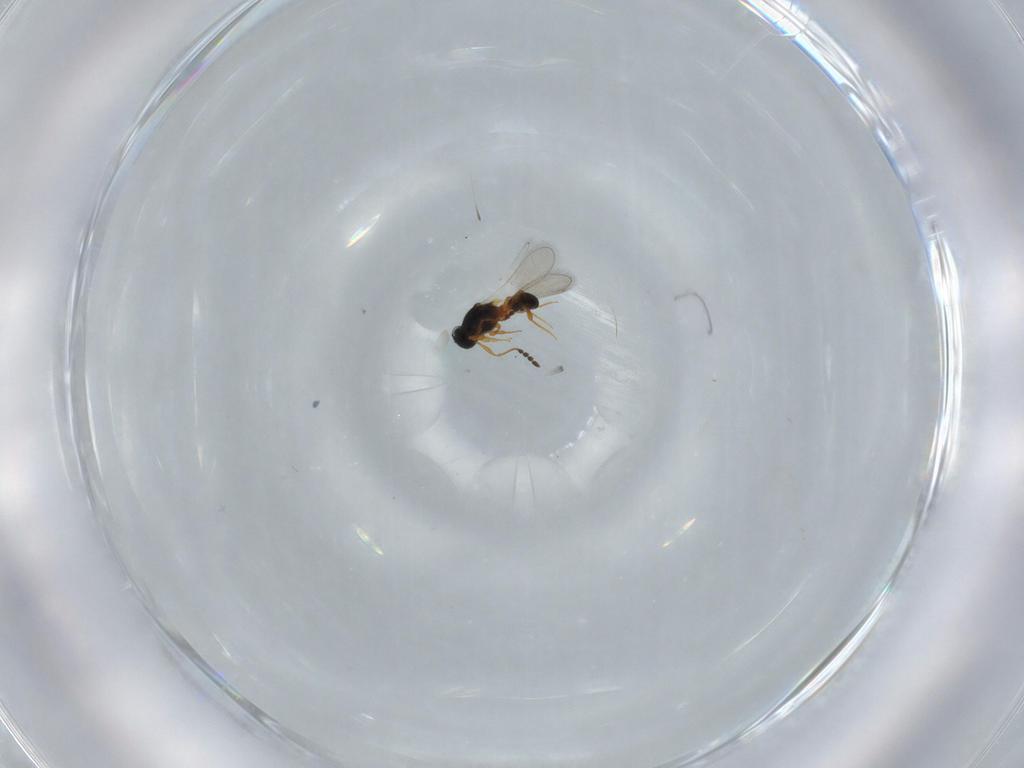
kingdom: Animalia
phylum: Arthropoda
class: Insecta
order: Hymenoptera
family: Platygastridae
